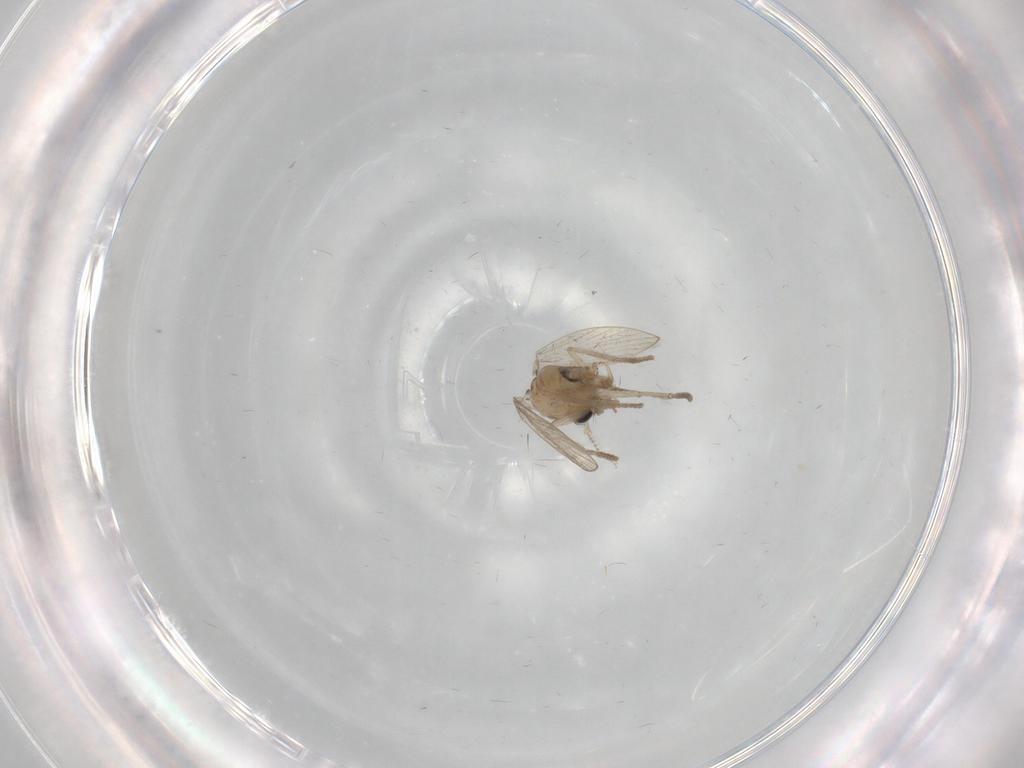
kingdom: Animalia
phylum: Arthropoda
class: Insecta
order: Diptera
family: Psychodidae
